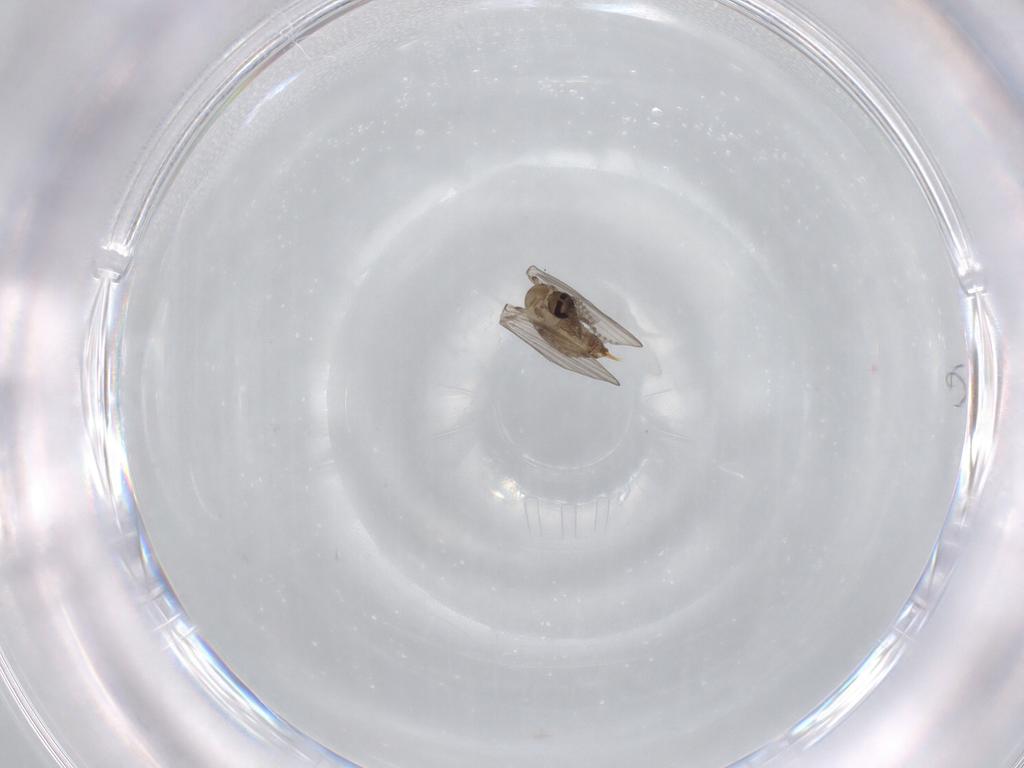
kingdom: Animalia
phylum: Arthropoda
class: Insecta
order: Diptera
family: Psychodidae
